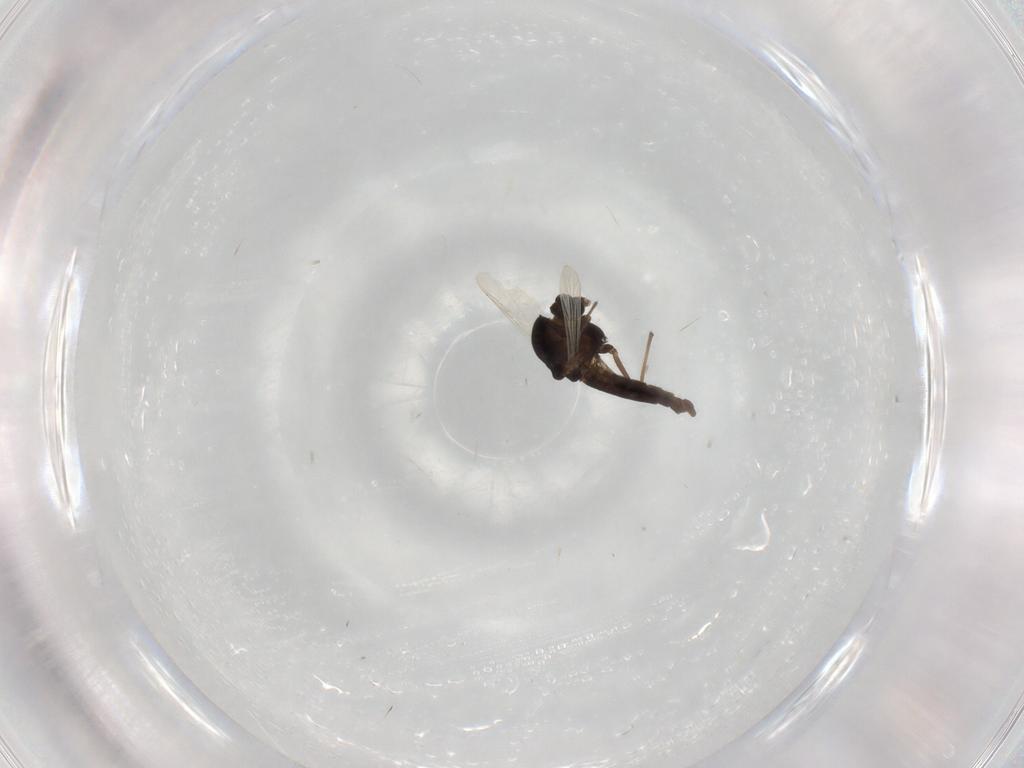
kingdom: Animalia
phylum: Arthropoda
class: Insecta
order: Diptera
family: Chironomidae
